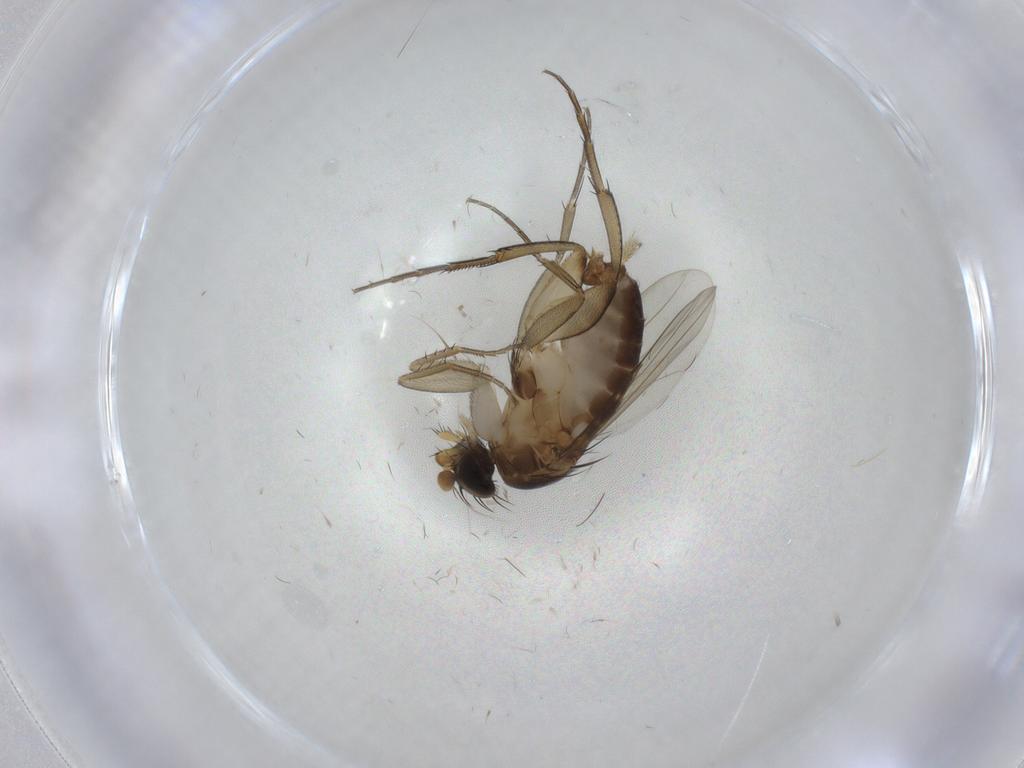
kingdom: Animalia
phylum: Arthropoda
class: Insecta
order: Diptera
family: Phoridae
